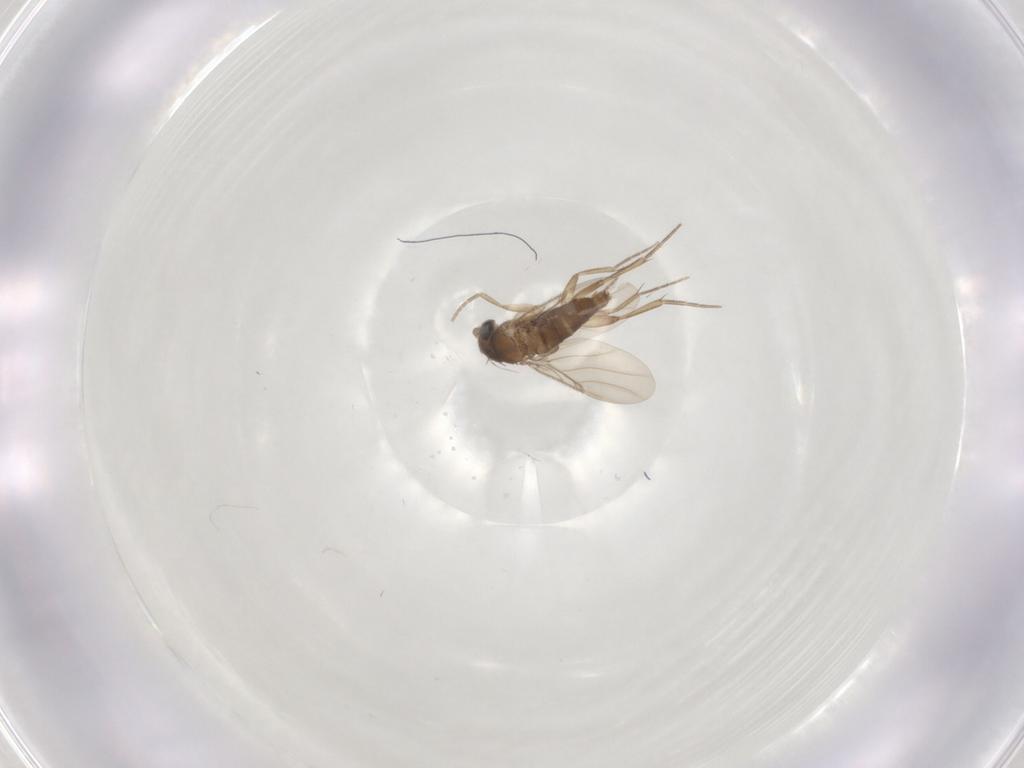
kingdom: Animalia
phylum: Arthropoda
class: Insecta
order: Diptera
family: Phoridae
